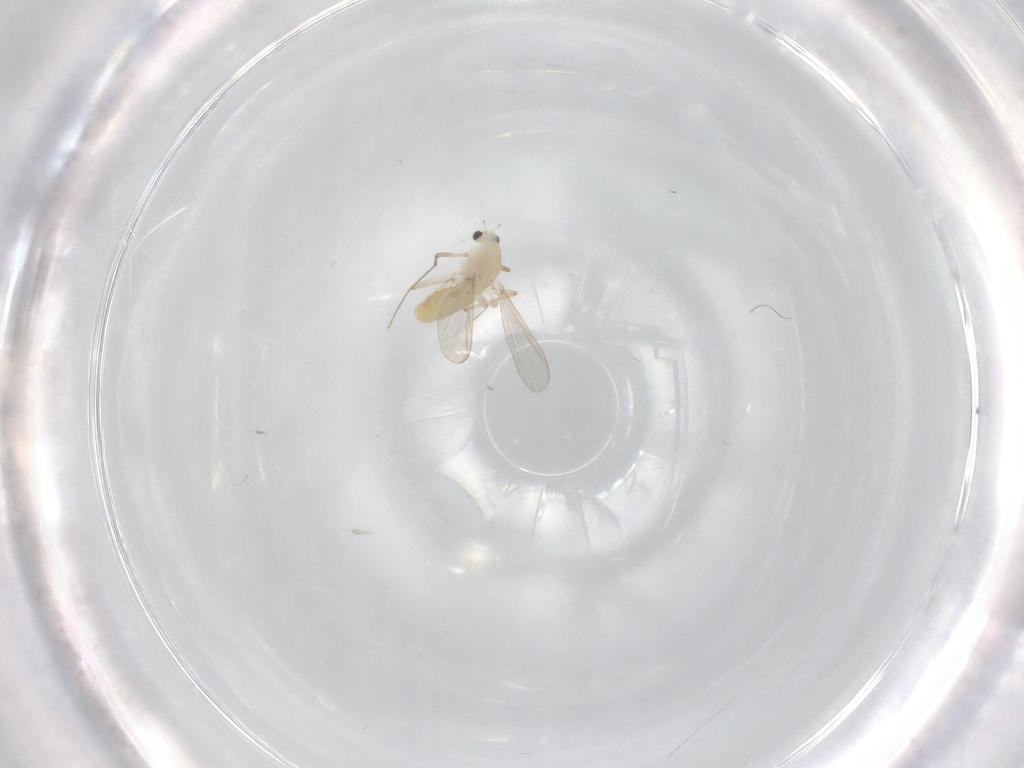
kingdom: Animalia
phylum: Arthropoda
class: Insecta
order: Diptera
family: Chironomidae
